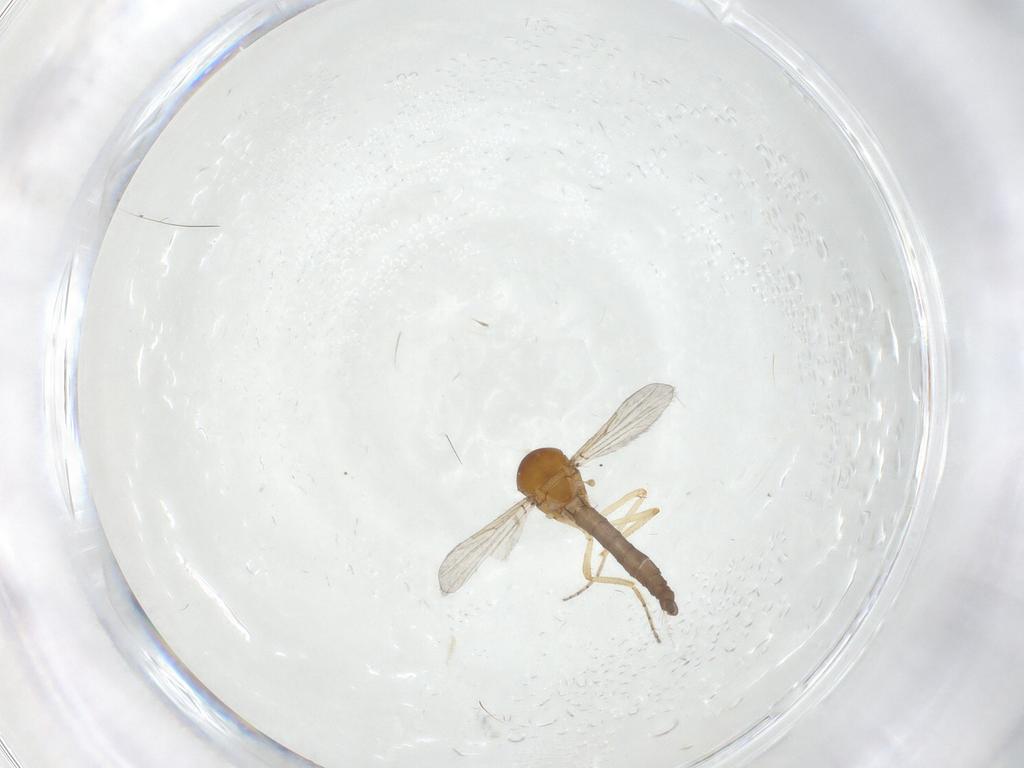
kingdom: Animalia
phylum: Arthropoda
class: Insecta
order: Diptera
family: Ceratopogonidae
